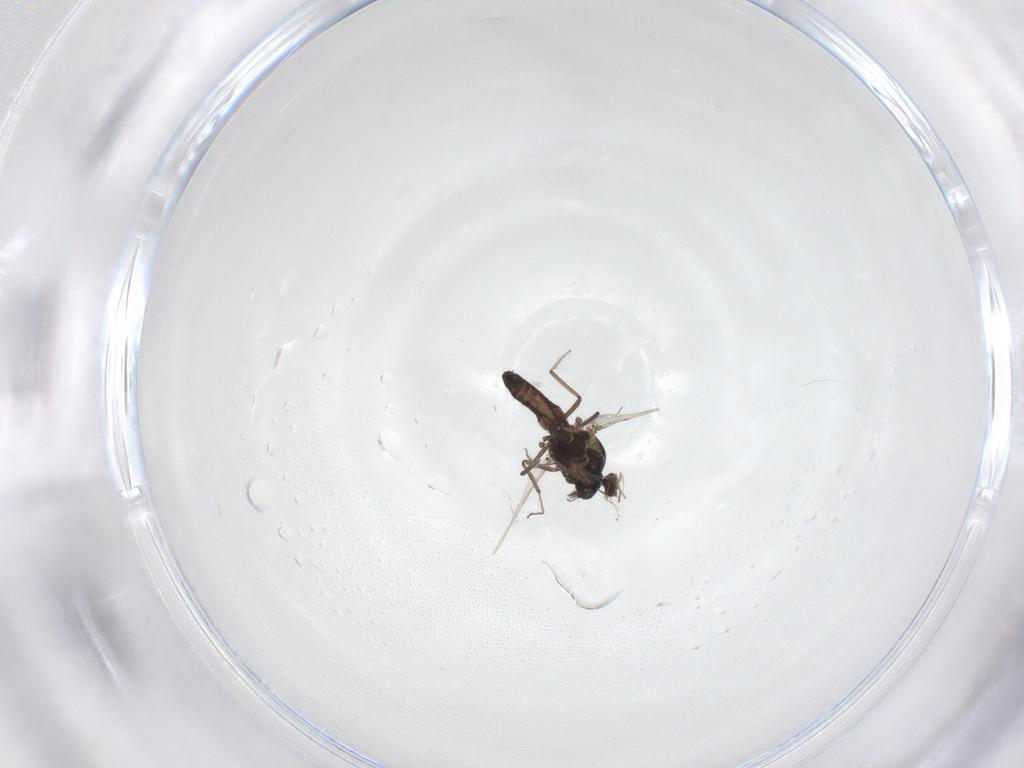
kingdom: Animalia
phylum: Arthropoda
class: Insecta
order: Diptera
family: Ceratopogonidae
